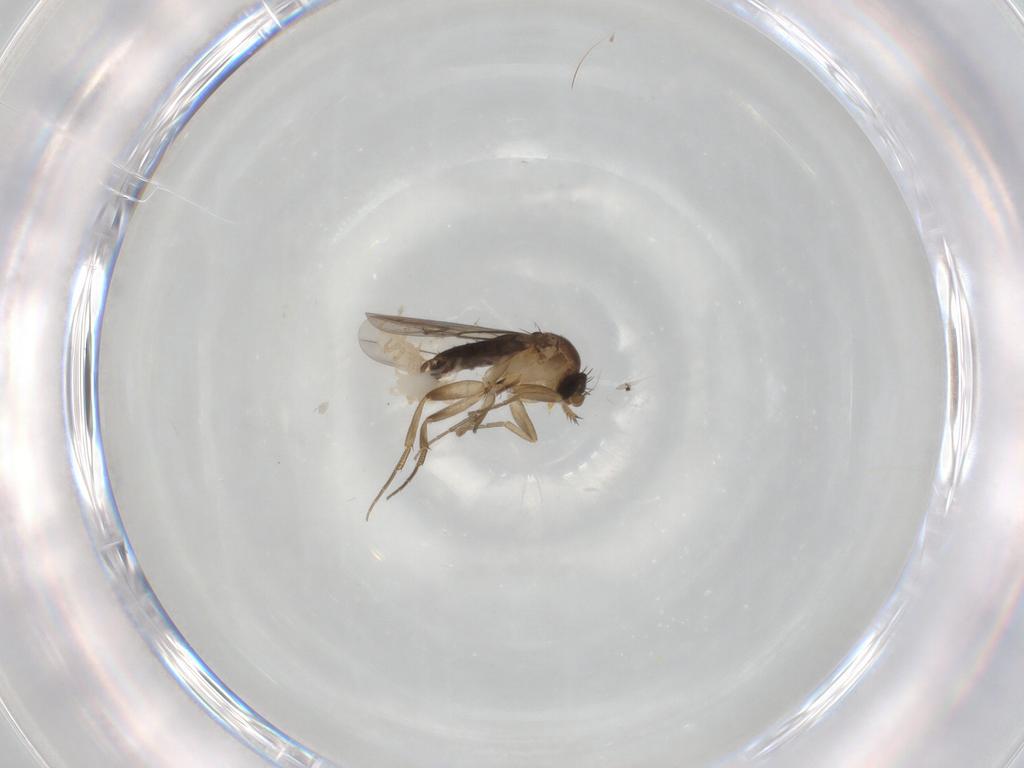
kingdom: Animalia
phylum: Arthropoda
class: Insecta
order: Diptera
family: Phoridae
